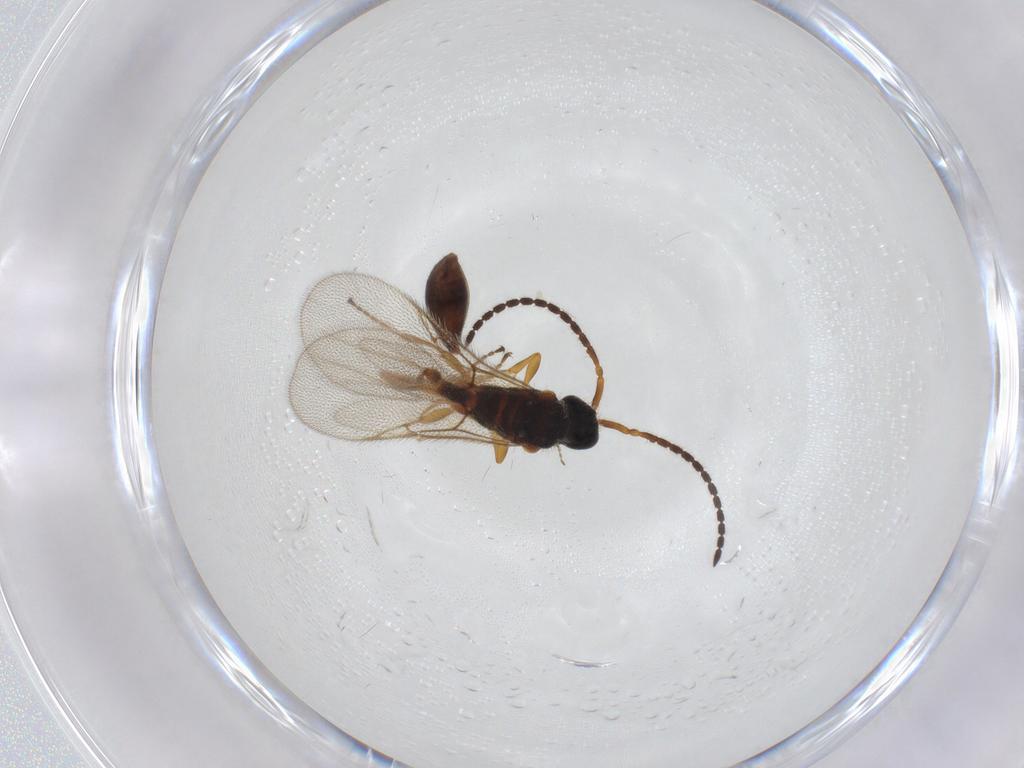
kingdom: Animalia
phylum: Arthropoda
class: Insecta
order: Hymenoptera
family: Diapriidae
